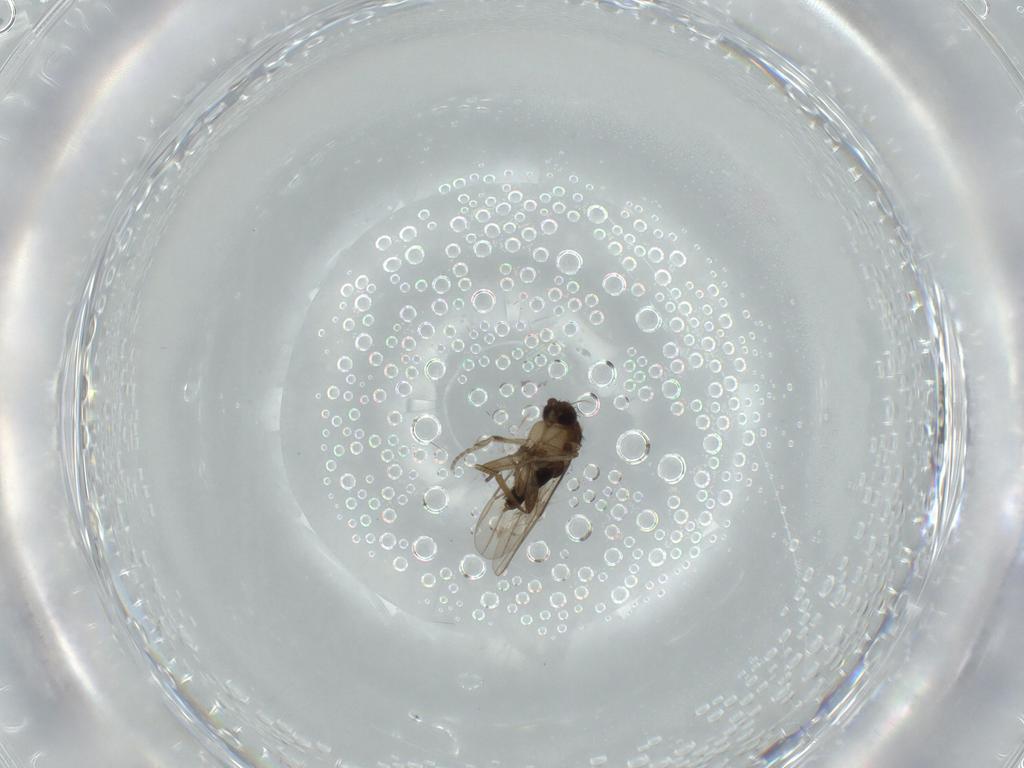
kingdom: Animalia
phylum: Arthropoda
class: Insecta
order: Diptera
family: Phoridae
